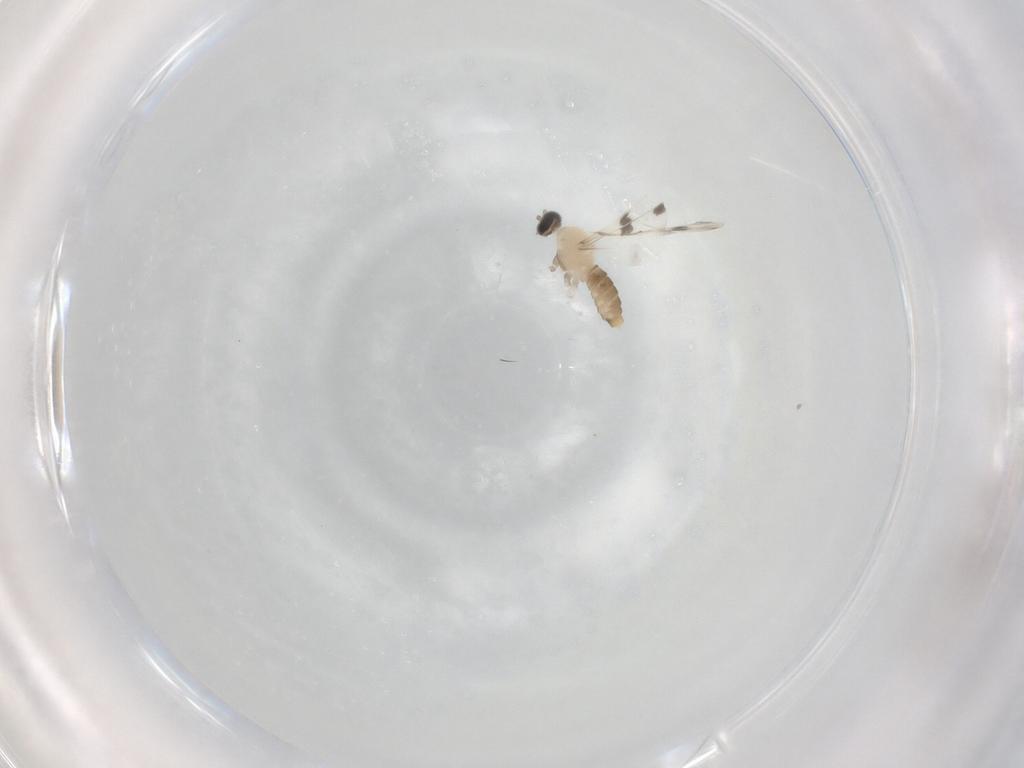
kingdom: Animalia
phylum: Arthropoda
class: Insecta
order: Diptera
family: Cecidomyiidae
